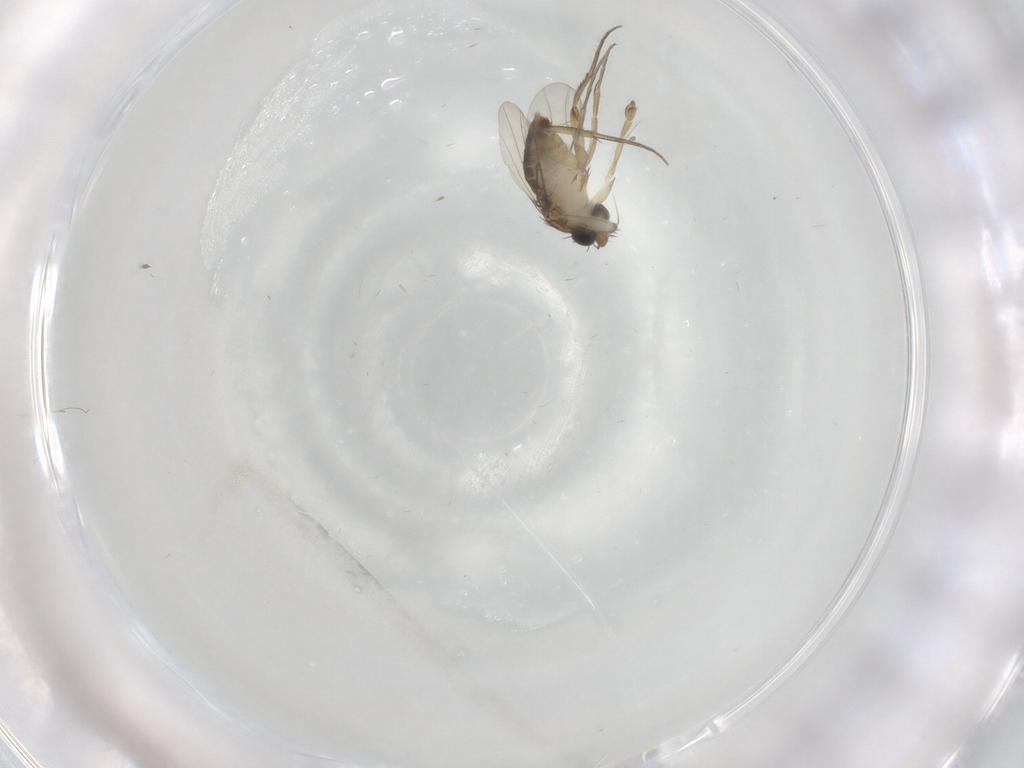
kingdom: Animalia
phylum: Arthropoda
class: Insecta
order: Diptera
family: Phoridae
